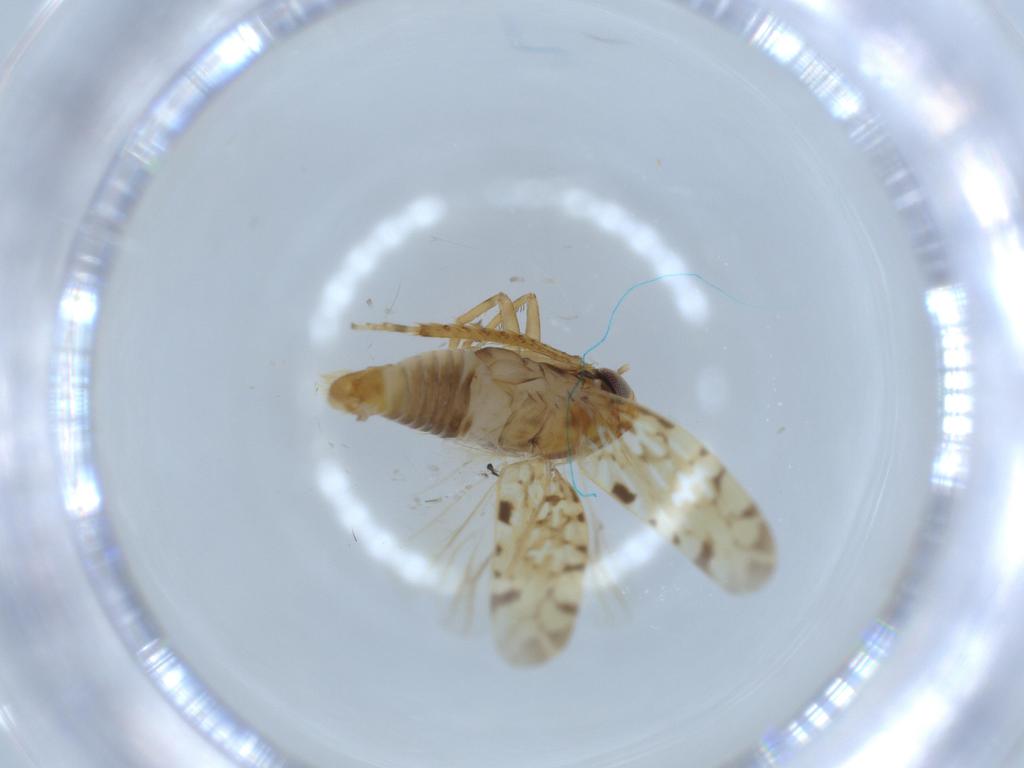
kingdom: Animalia
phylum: Arthropoda
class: Insecta
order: Hemiptera
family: Cicadellidae
